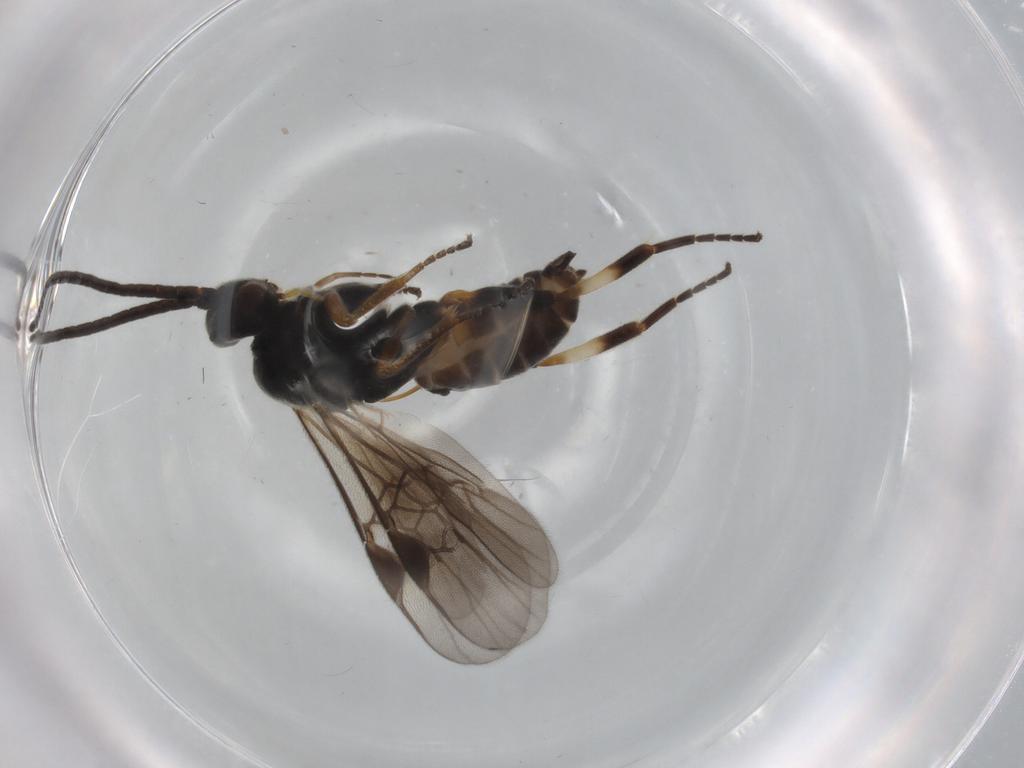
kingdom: Animalia
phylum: Arthropoda
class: Insecta
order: Hymenoptera
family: Braconidae
